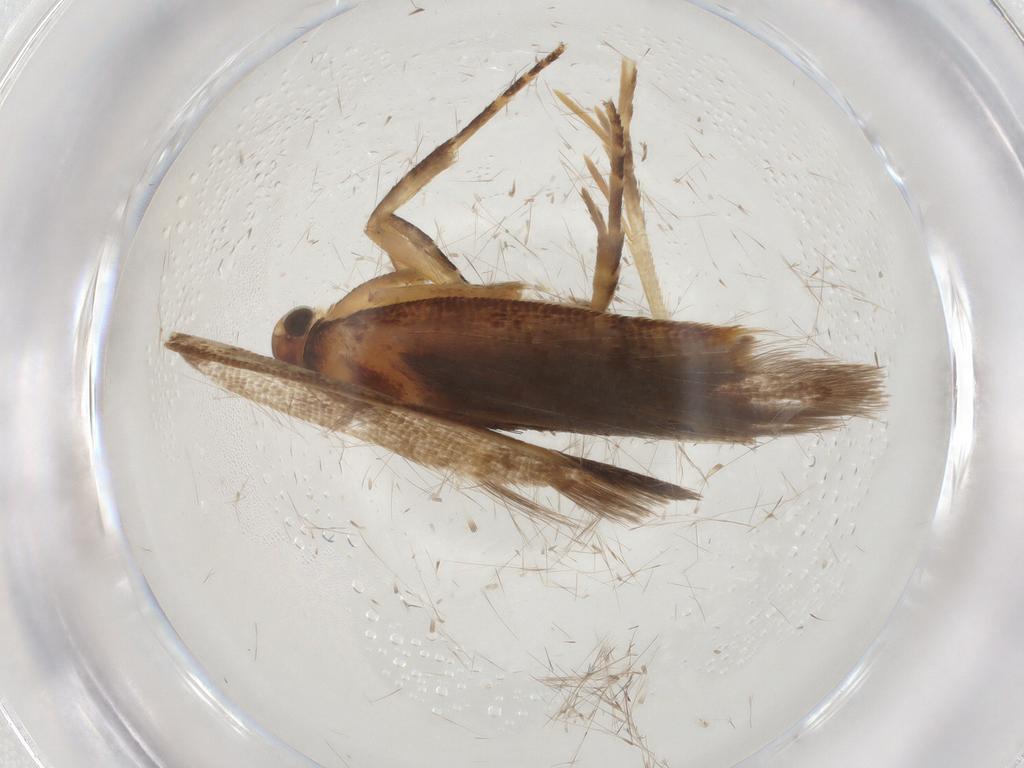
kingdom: Animalia
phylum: Arthropoda
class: Insecta
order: Lepidoptera
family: Gelechiidae
